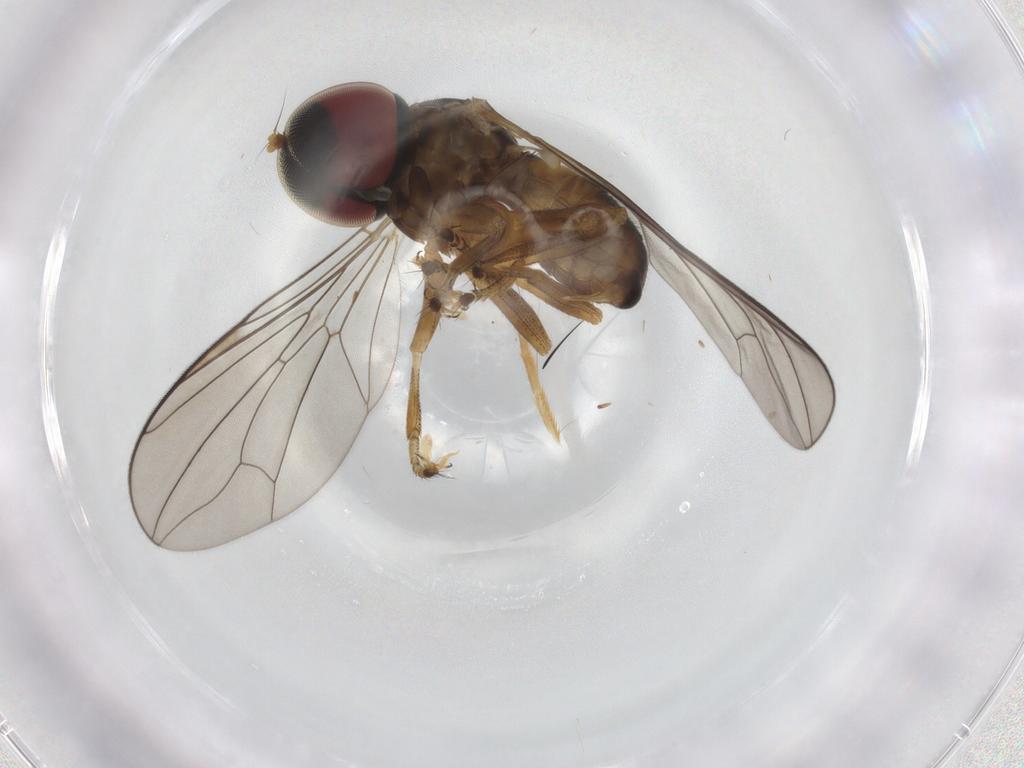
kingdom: Animalia
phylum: Arthropoda
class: Insecta
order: Diptera
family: Pipunculidae
